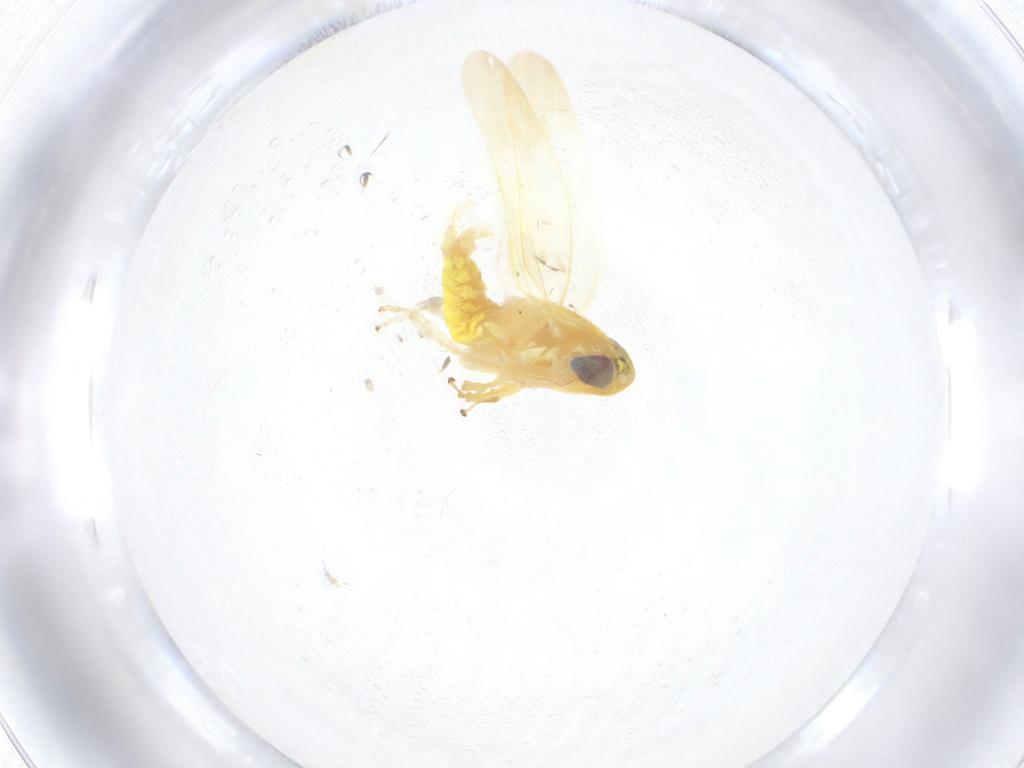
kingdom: Animalia
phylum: Arthropoda
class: Insecta
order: Hemiptera
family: Cicadellidae
